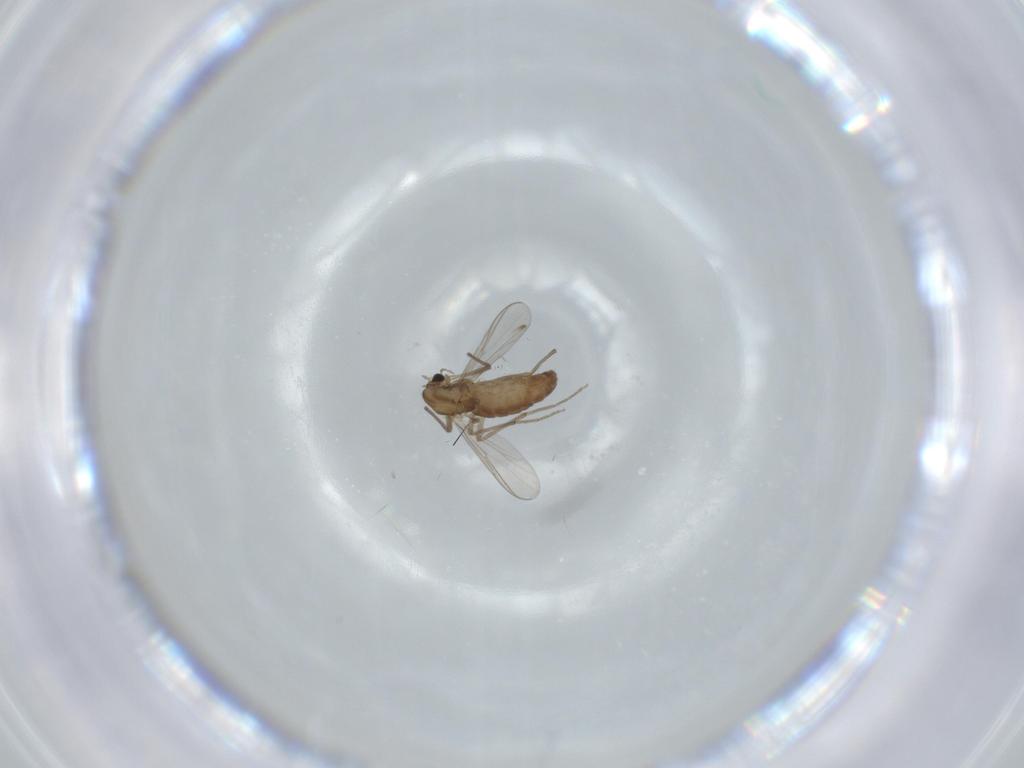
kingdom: Animalia
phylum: Arthropoda
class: Insecta
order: Diptera
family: Chironomidae
